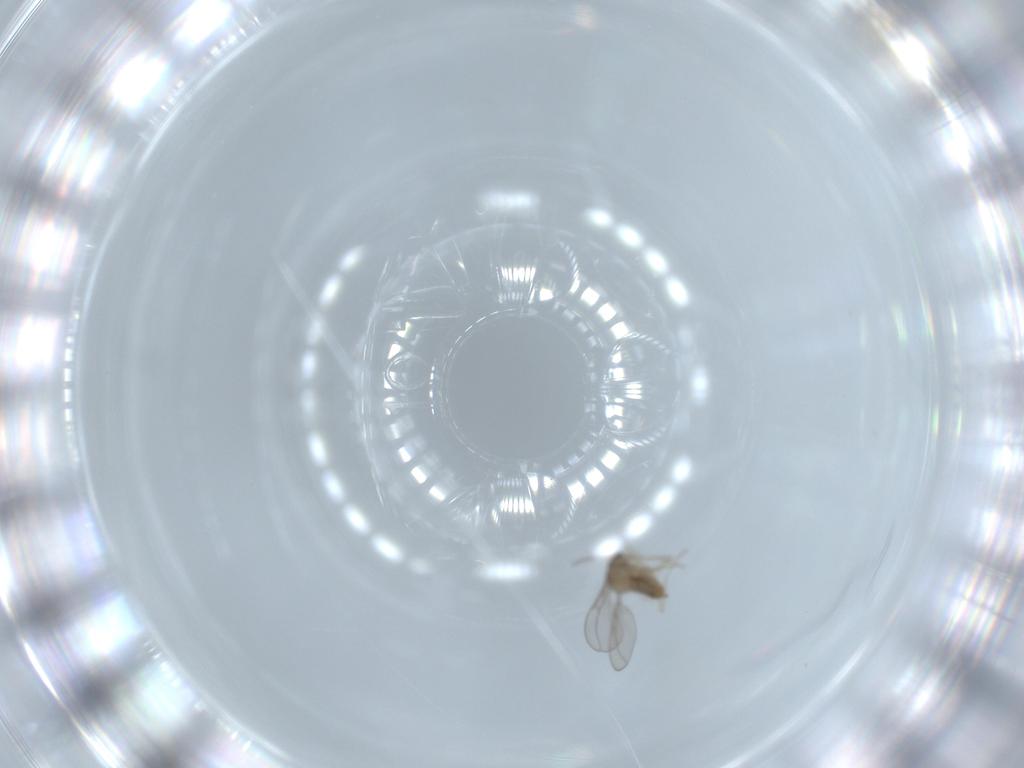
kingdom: Animalia
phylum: Arthropoda
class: Insecta
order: Diptera
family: Cecidomyiidae
